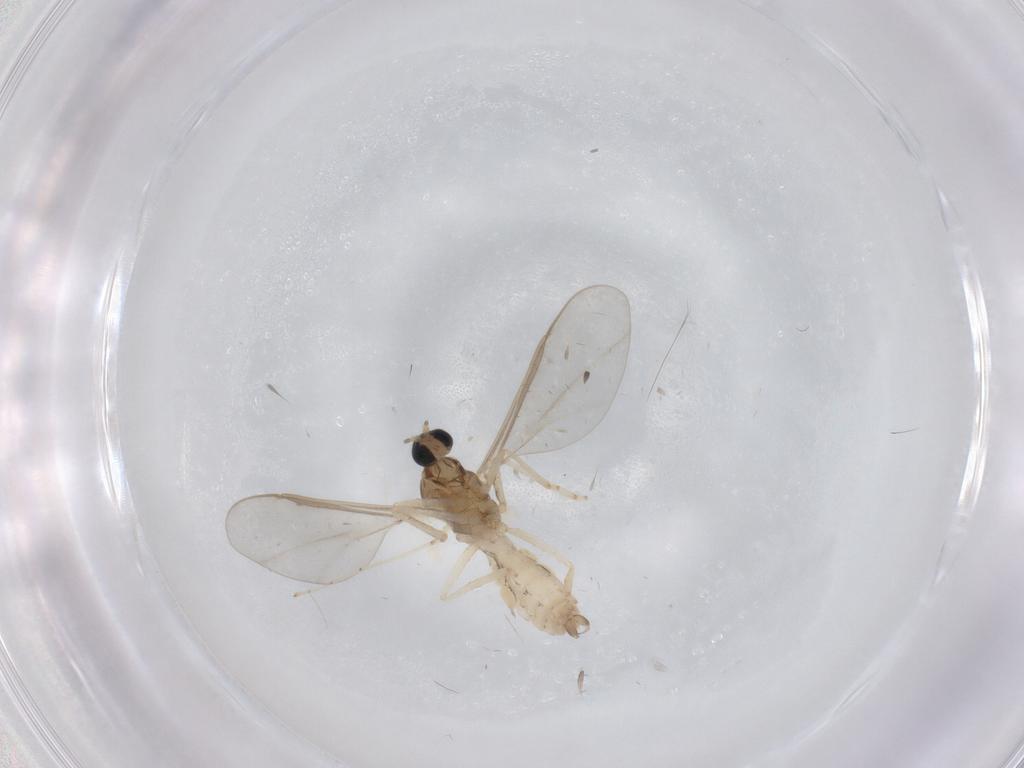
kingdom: Animalia
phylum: Arthropoda
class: Insecta
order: Diptera
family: Cecidomyiidae
